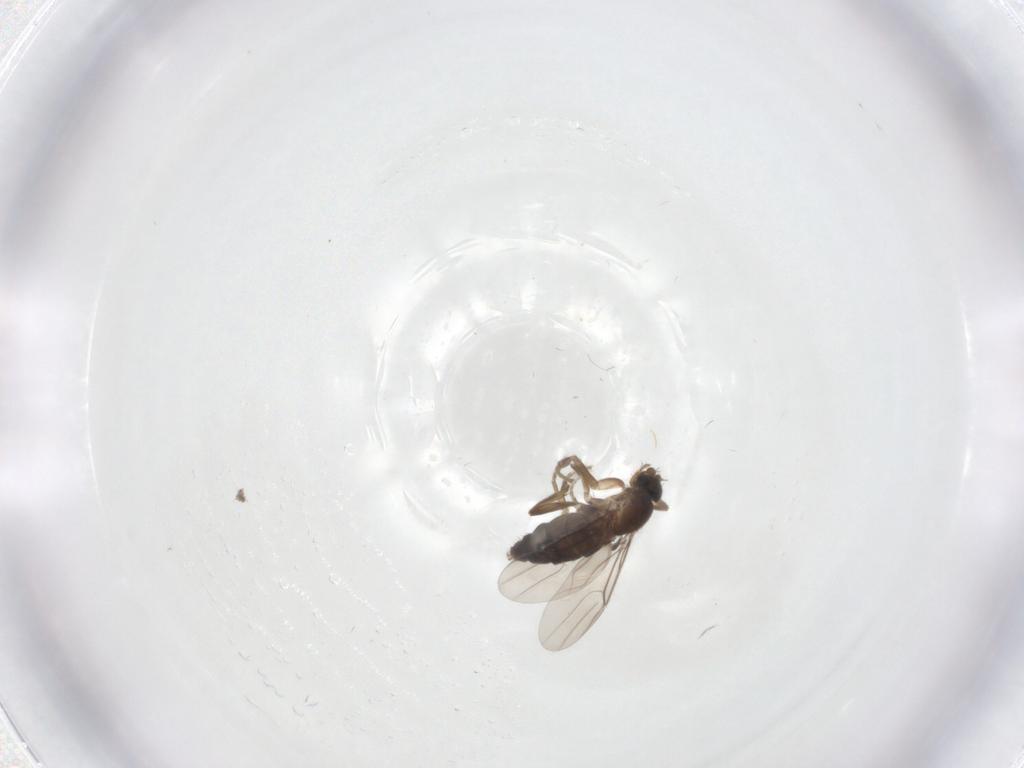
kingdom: Animalia
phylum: Arthropoda
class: Insecta
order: Diptera
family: Phoridae
